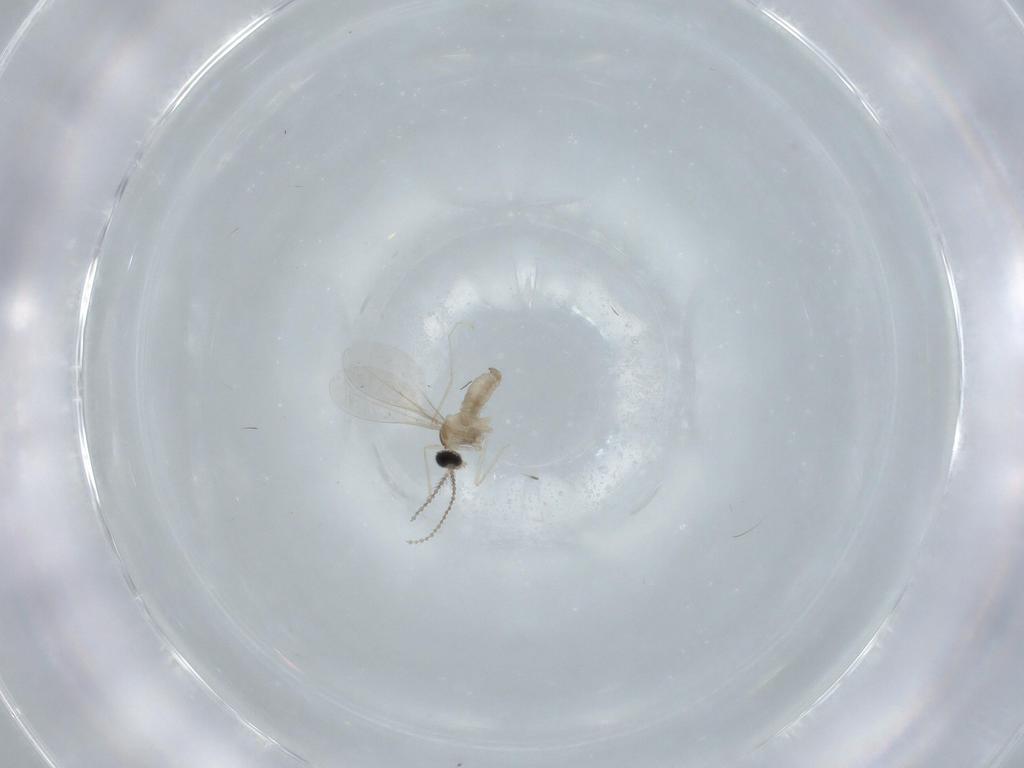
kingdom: Animalia
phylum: Arthropoda
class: Insecta
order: Diptera
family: Cecidomyiidae
